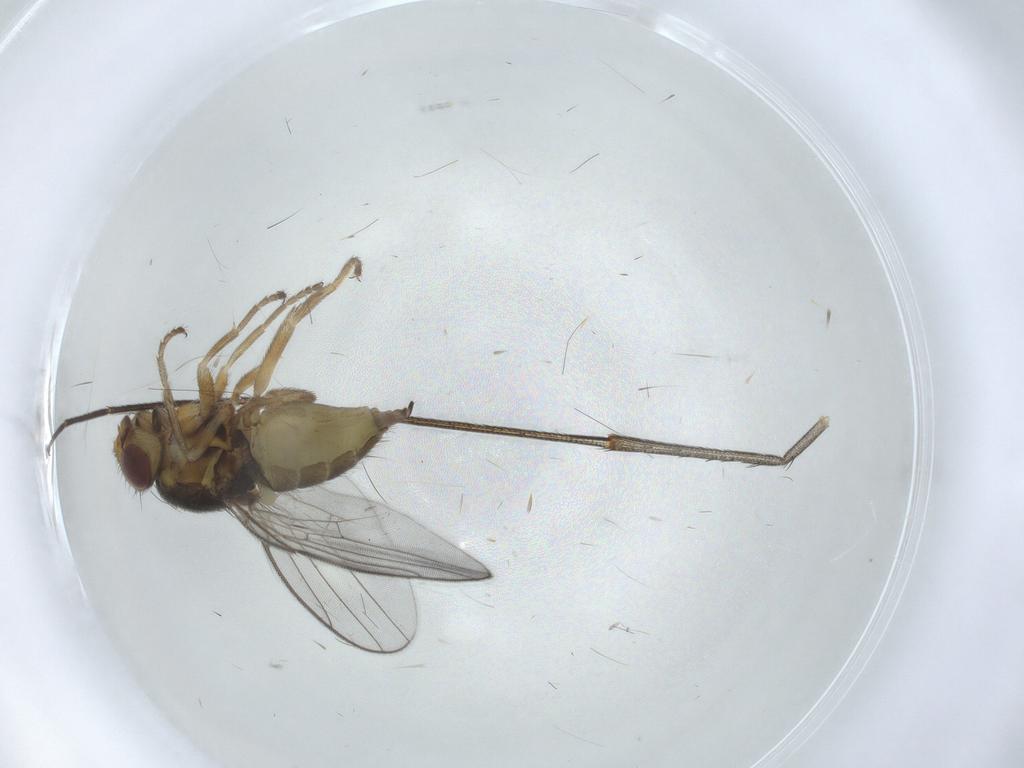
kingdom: Animalia
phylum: Arthropoda
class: Insecta
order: Diptera
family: Chloropidae
